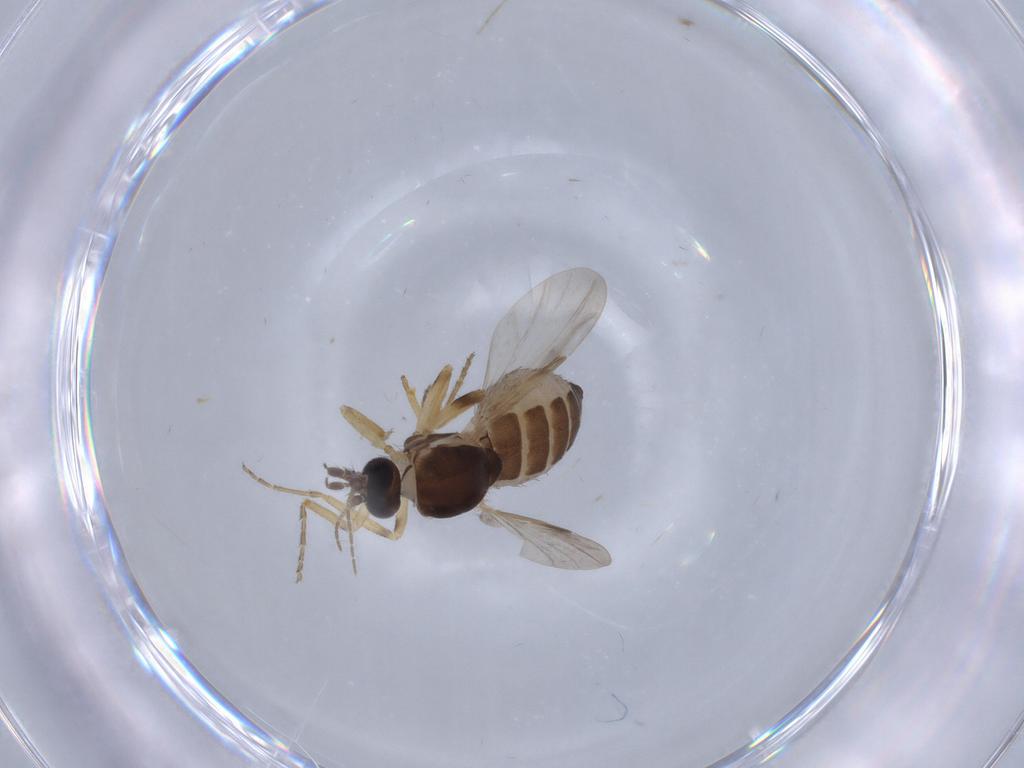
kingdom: Animalia
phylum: Arthropoda
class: Insecta
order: Diptera
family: Ceratopogonidae
